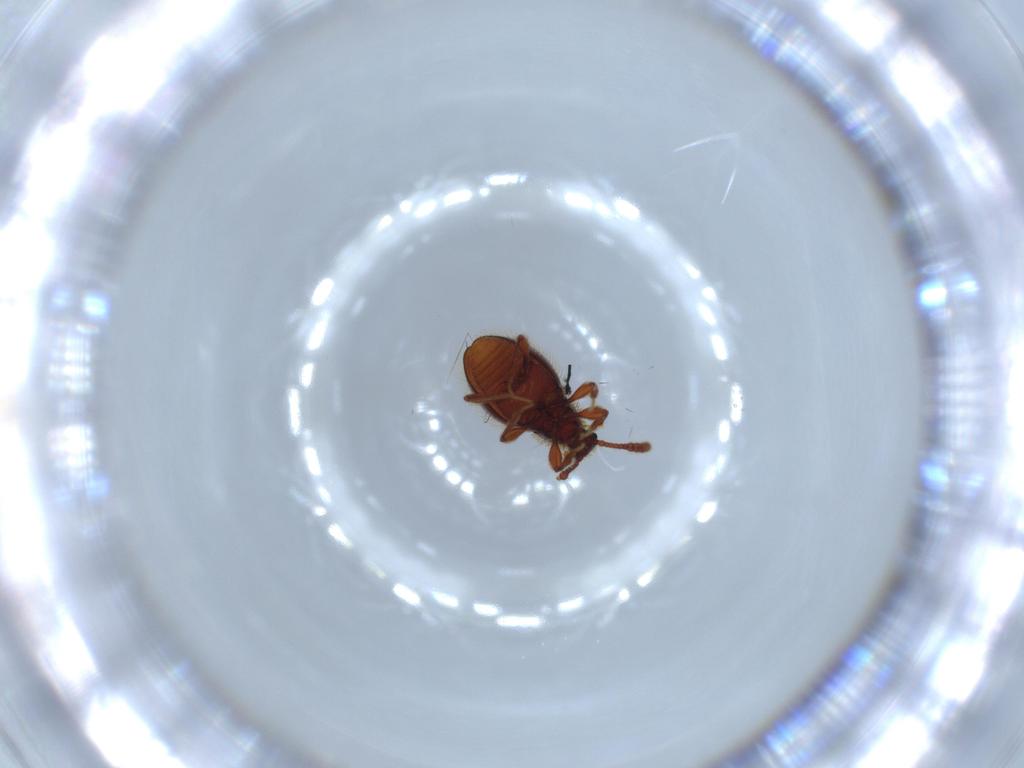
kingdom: Animalia
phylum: Arthropoda
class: Insecta
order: Coleoptera
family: Staphylinidae
